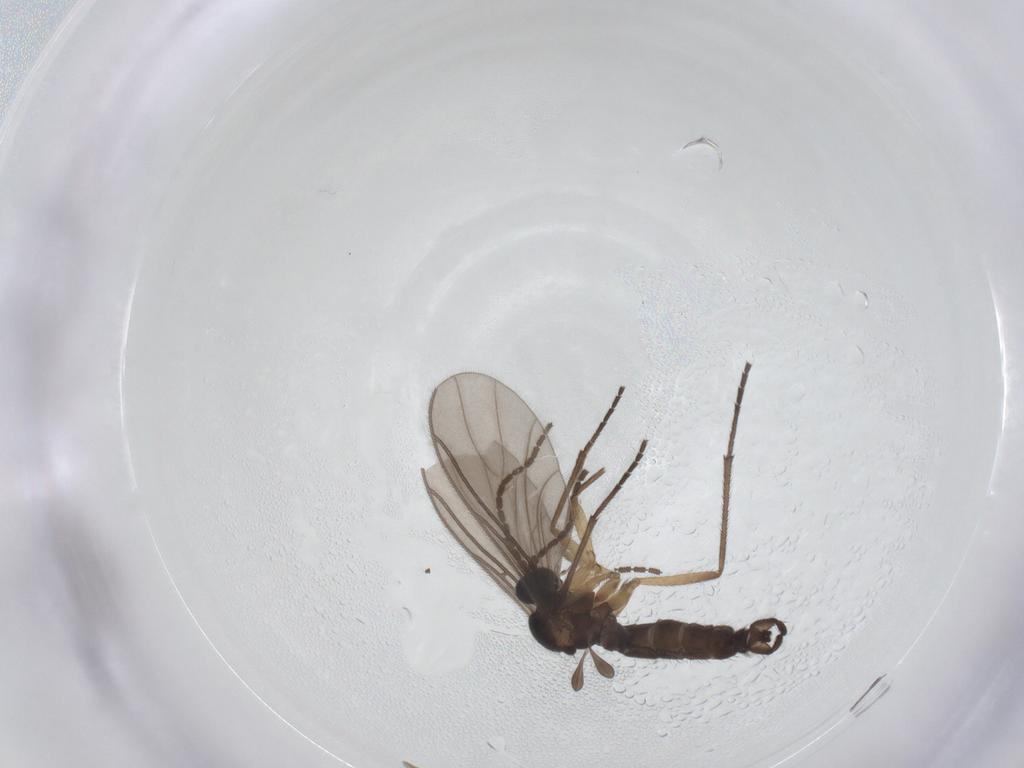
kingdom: Animalia
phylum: Arthropoda
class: Insecta
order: Diptera
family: Sciaridae
